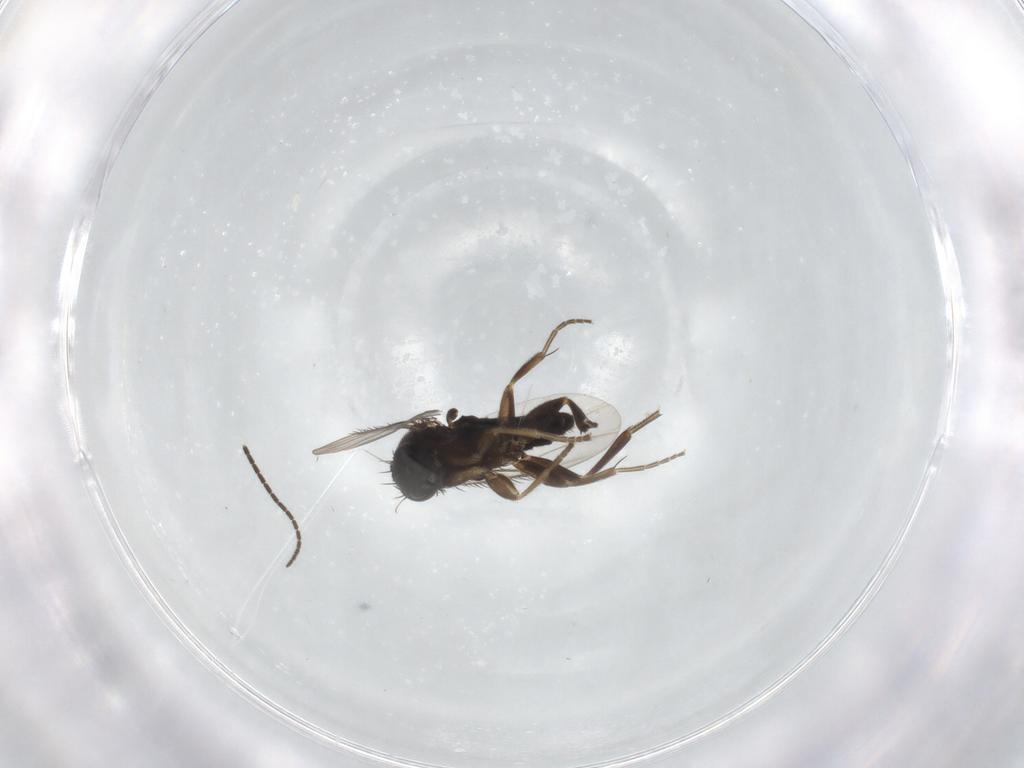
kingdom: Animalia
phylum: Arthropoda
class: Insecta
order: Diptera
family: Phoridae
